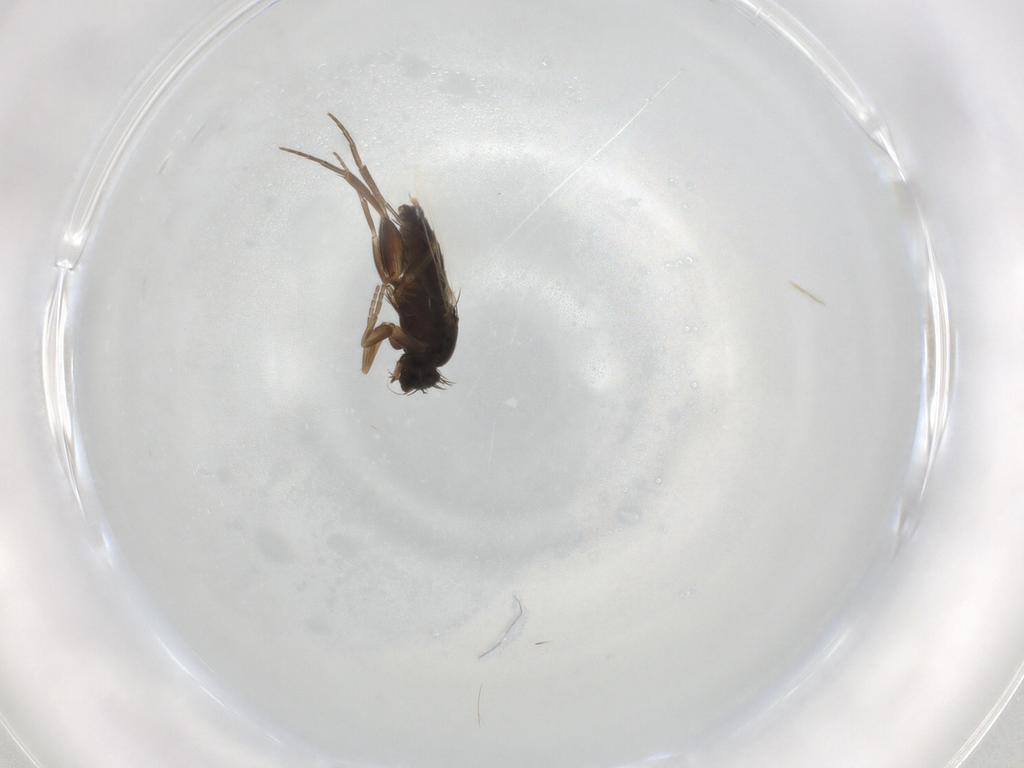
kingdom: Animalia
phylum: Arthropoda
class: Insecta
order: Diptera
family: Phoridae
